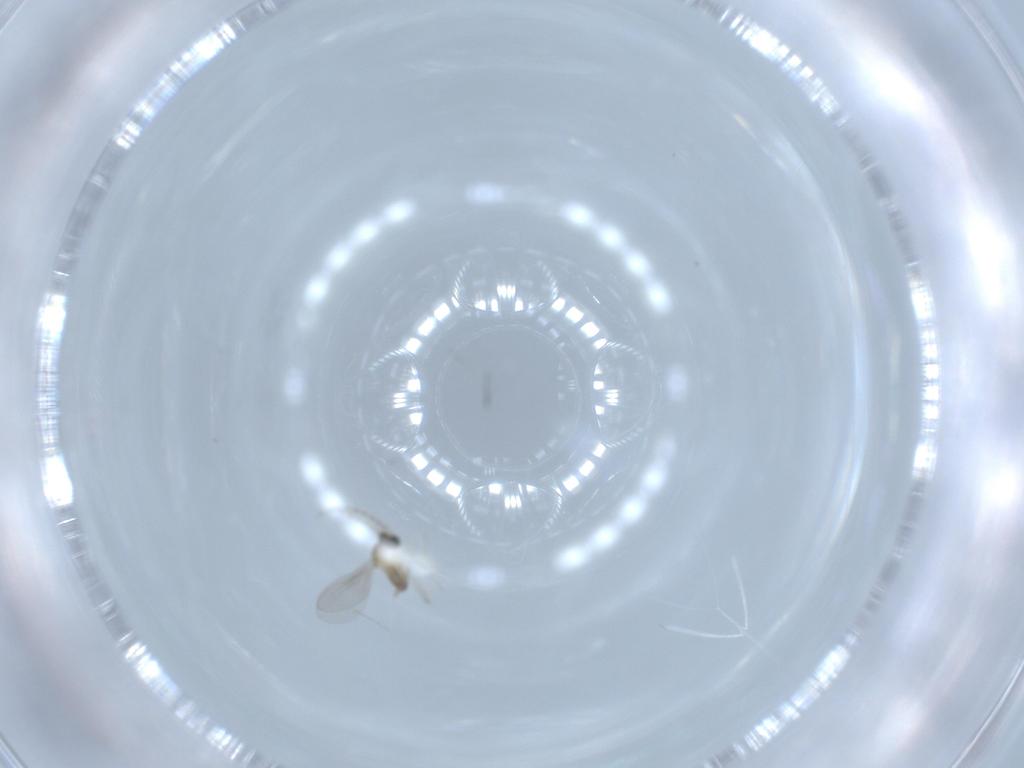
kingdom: Animalia
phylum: Arthropoda
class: Insecta
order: Diptera
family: Cecidomyiidae
